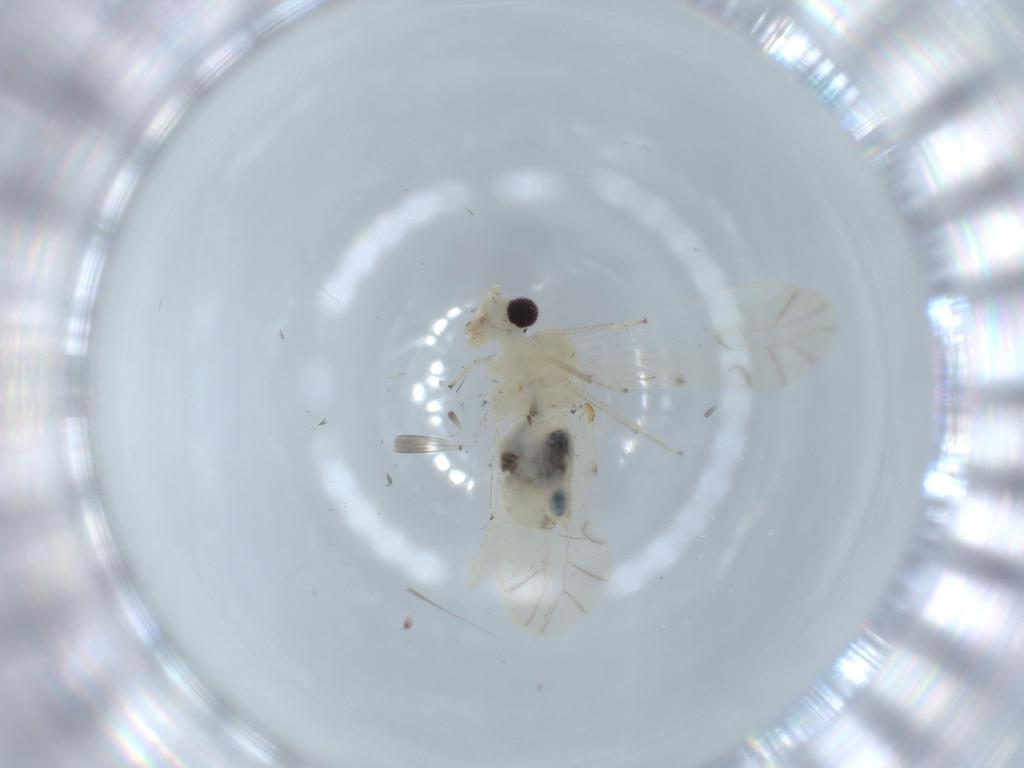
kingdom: Animalia
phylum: Arthropoda
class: Insecta
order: Psocodea
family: Caeciliusidae
